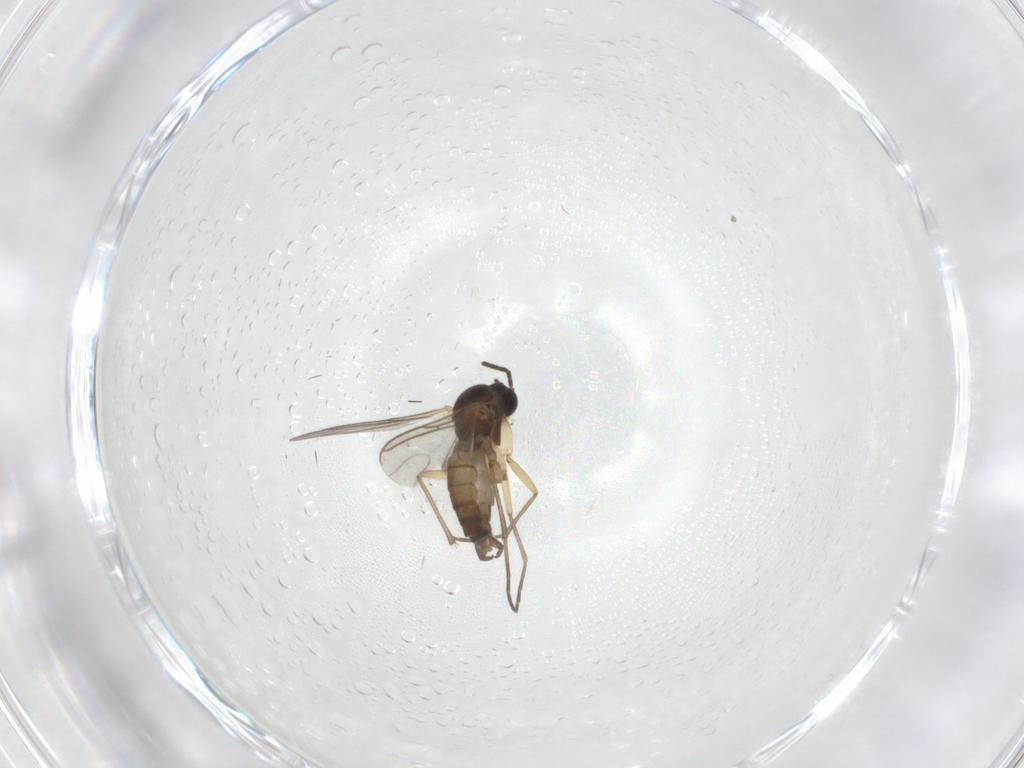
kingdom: Animalia
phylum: Arthropoda
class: Insecta
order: Diptera
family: Sciaridae
